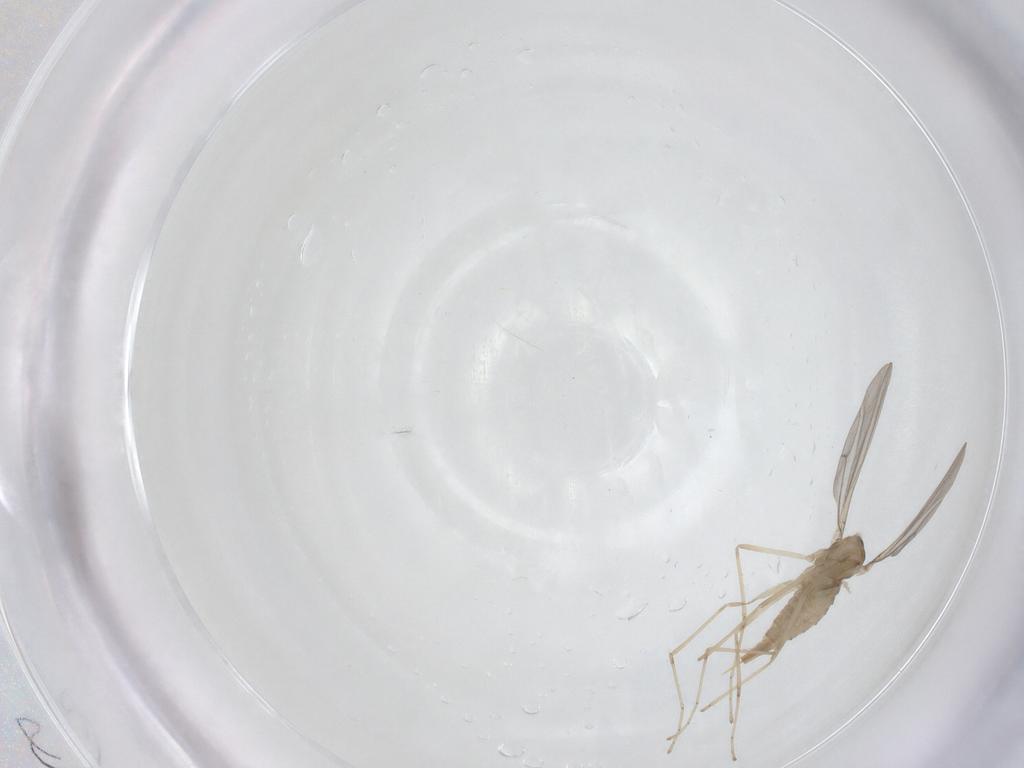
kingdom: Animalia
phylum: Arthropoda
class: Insecta
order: Diptera
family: Cecidomyiidae
